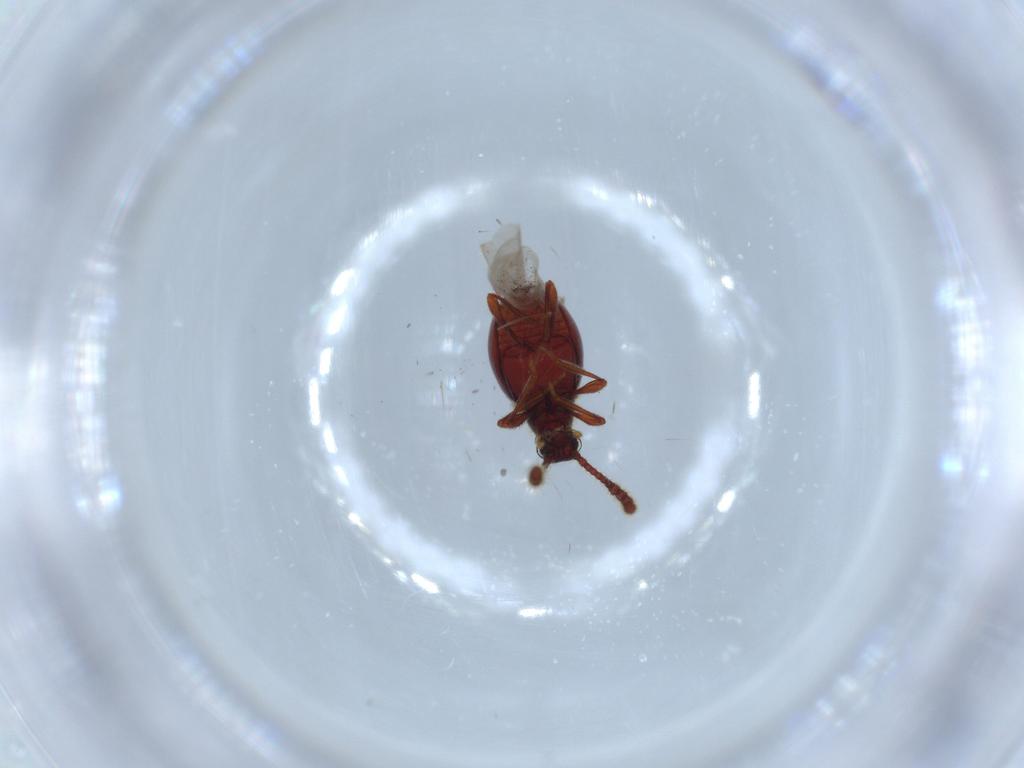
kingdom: Animalia
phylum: Arthropoda
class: Insecta
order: Coleoptera
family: Staphylinidae
